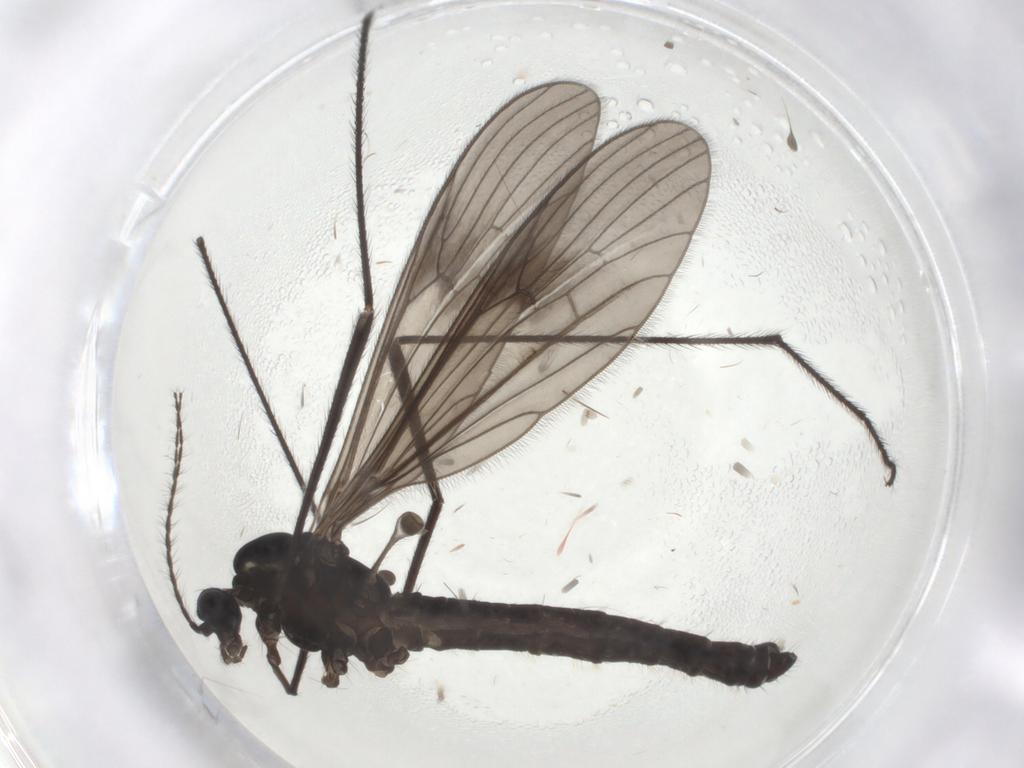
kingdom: Animalia
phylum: Arthropoda
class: Insecta
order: Diptera
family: Limoniidae
